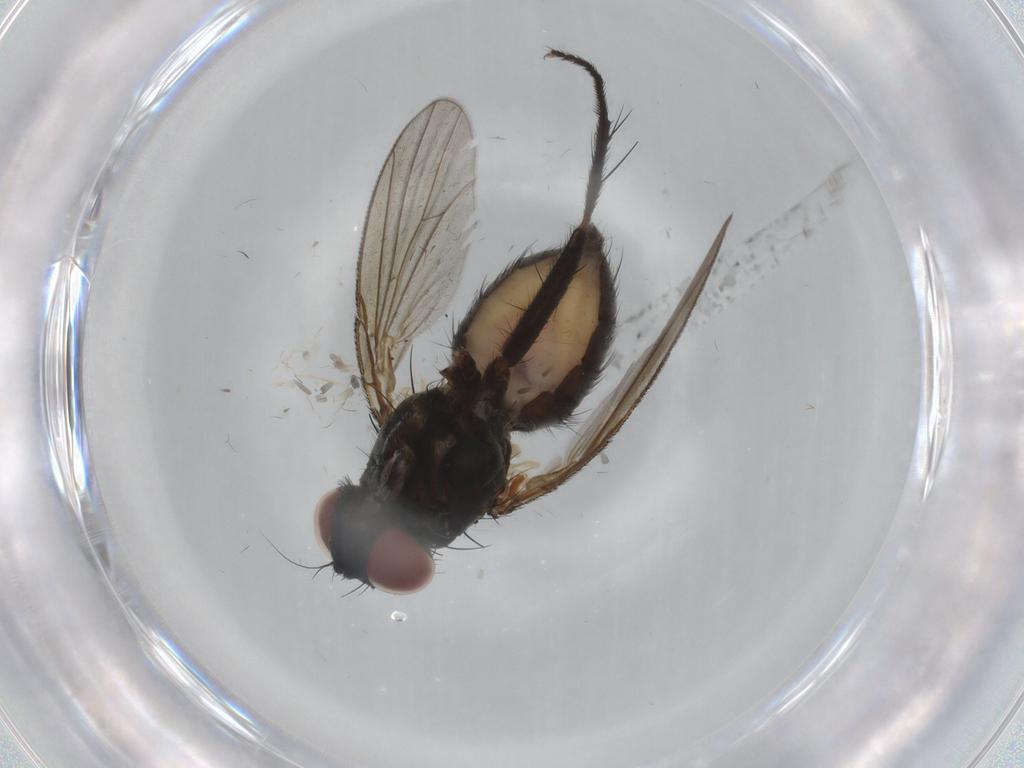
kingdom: Animalia
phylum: Arthropoda
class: Insecta
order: Diptera
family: Muscidae
